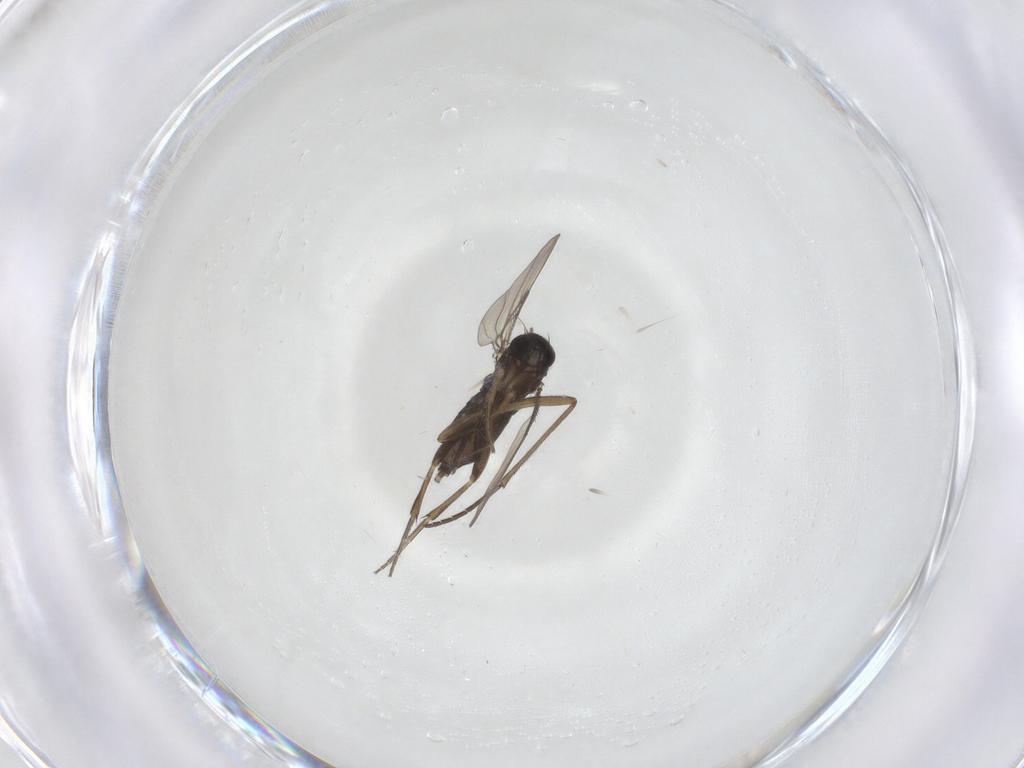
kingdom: Animalia
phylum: Arthropoda
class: Insecta
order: Diptera
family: Phoridae
